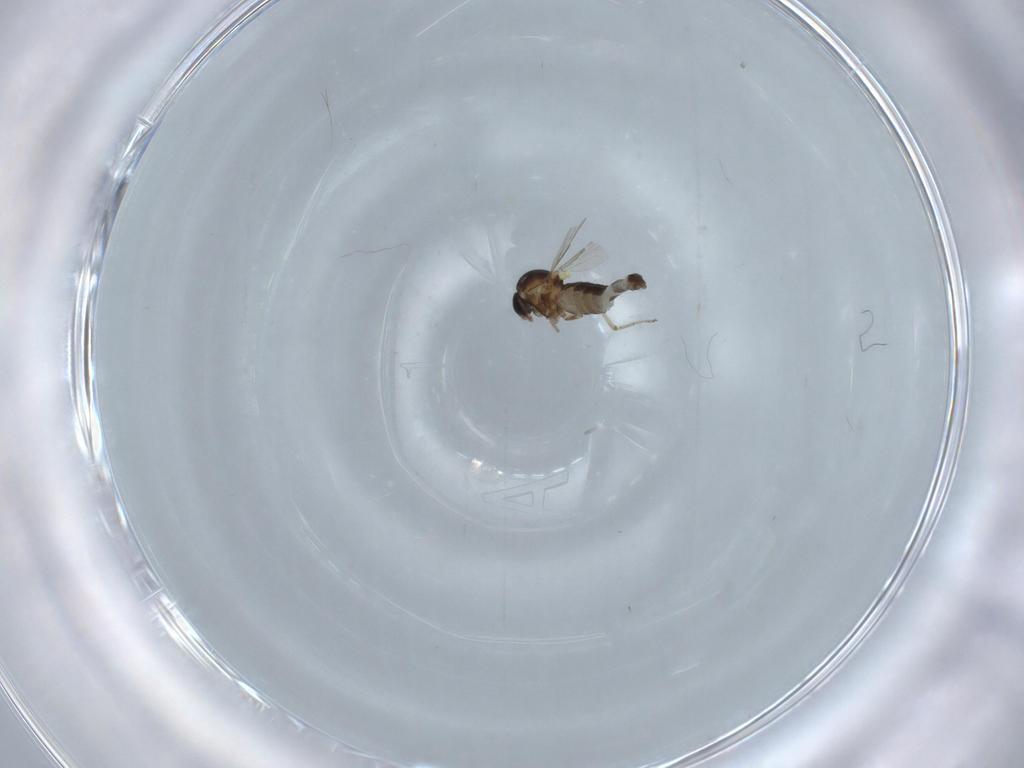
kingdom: Animalia
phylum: Arthropoda
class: Insecta
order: Diptera
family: Ceratopogonidae
